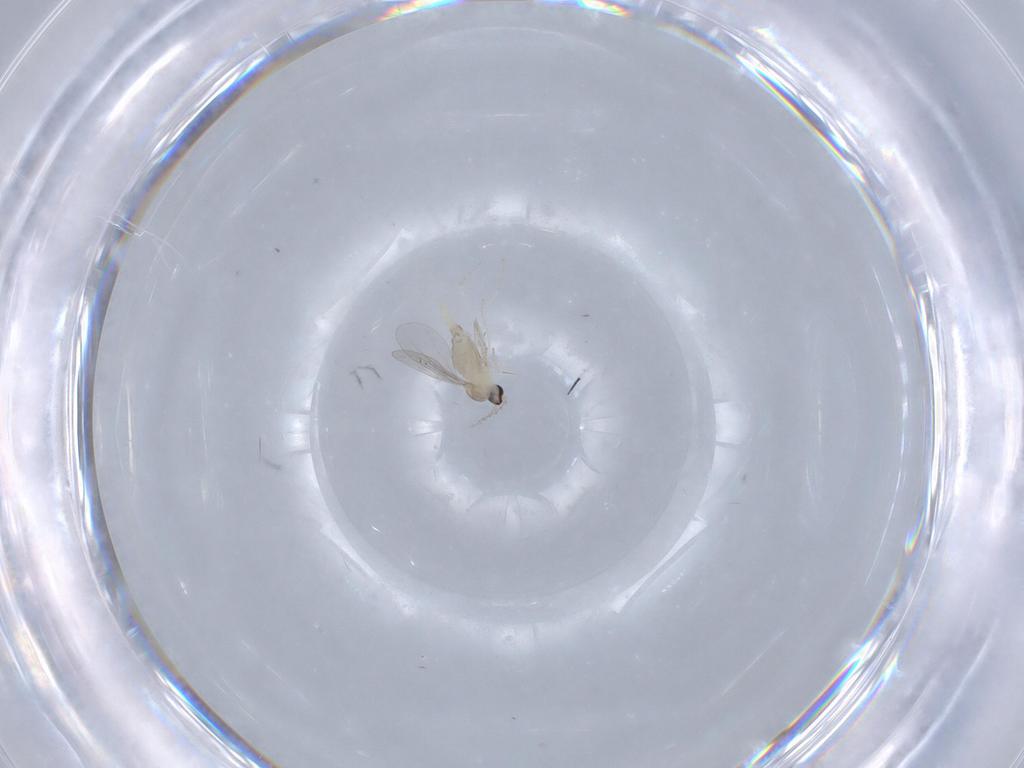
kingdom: Animalia
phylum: Arthropoda
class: Insecta
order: Diptera
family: Cecidomyiidae
